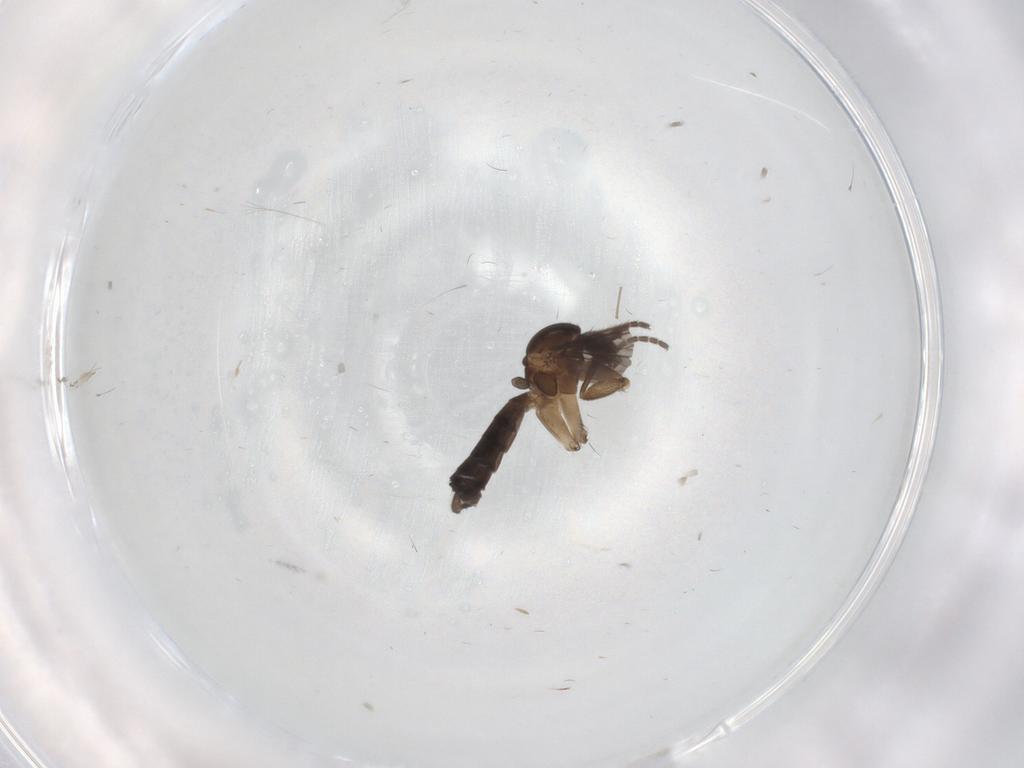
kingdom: Animalia
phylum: Arthropoda
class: Insecta
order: Diptera
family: Mycetophilidae
